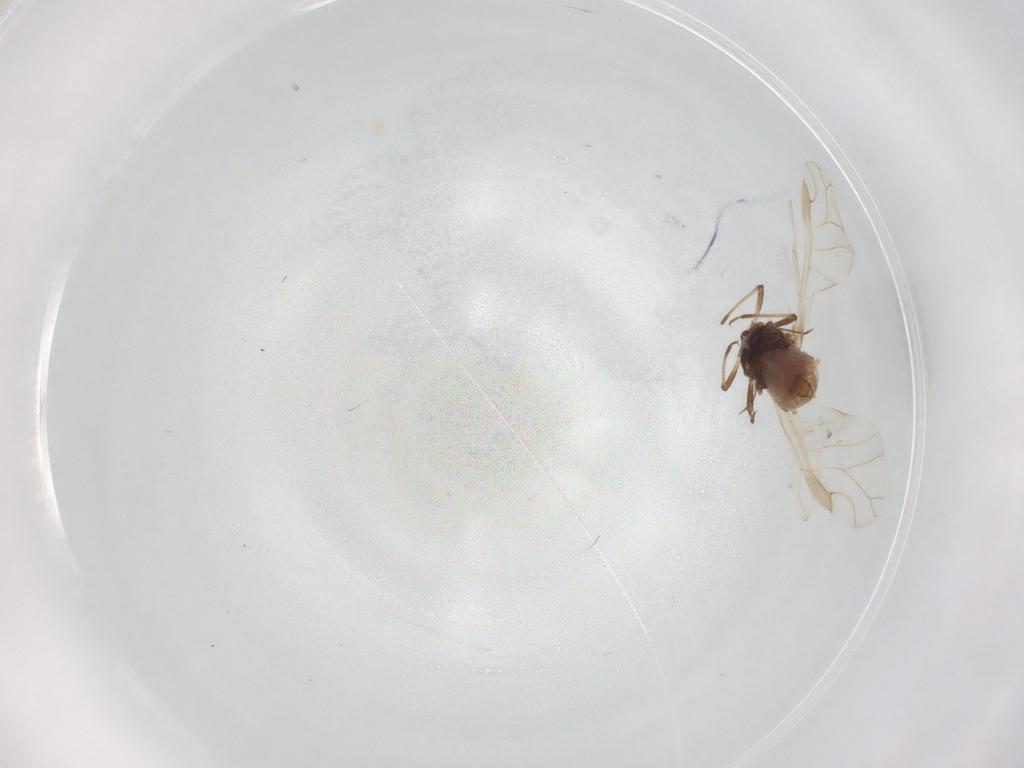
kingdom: Animalia
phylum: Arthropoda
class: Insecta
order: Hemiptera
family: Aphididae
